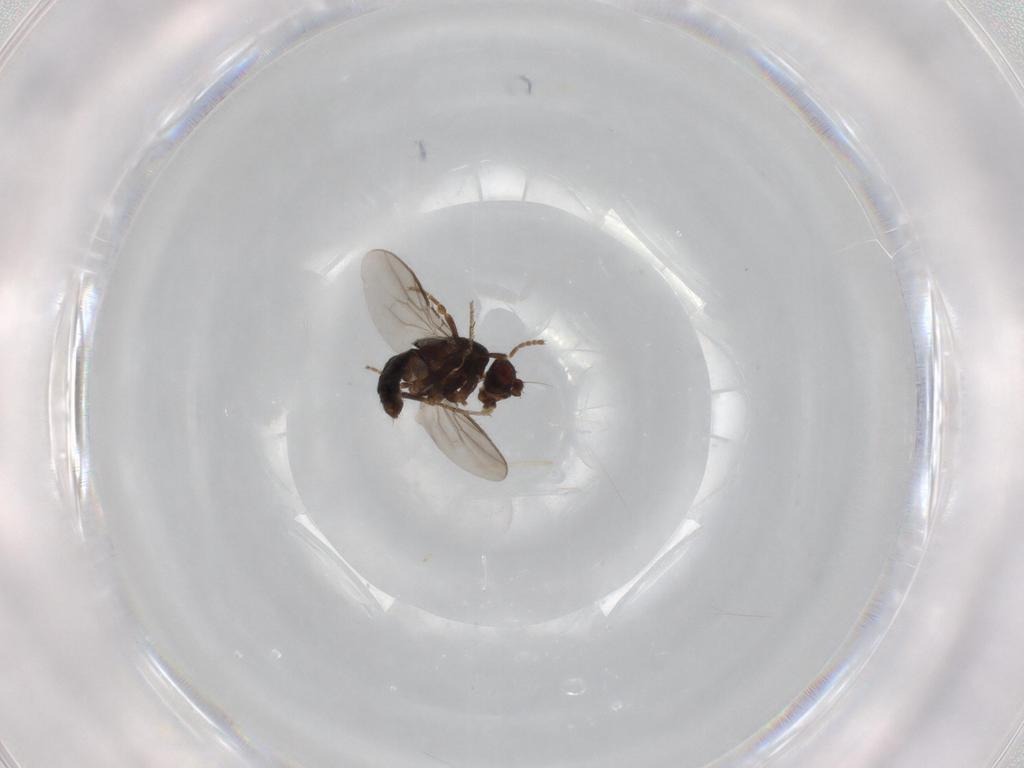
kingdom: Animalia
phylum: Arthropoda
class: Insecta
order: Diptera
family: Sphaeroceridae
